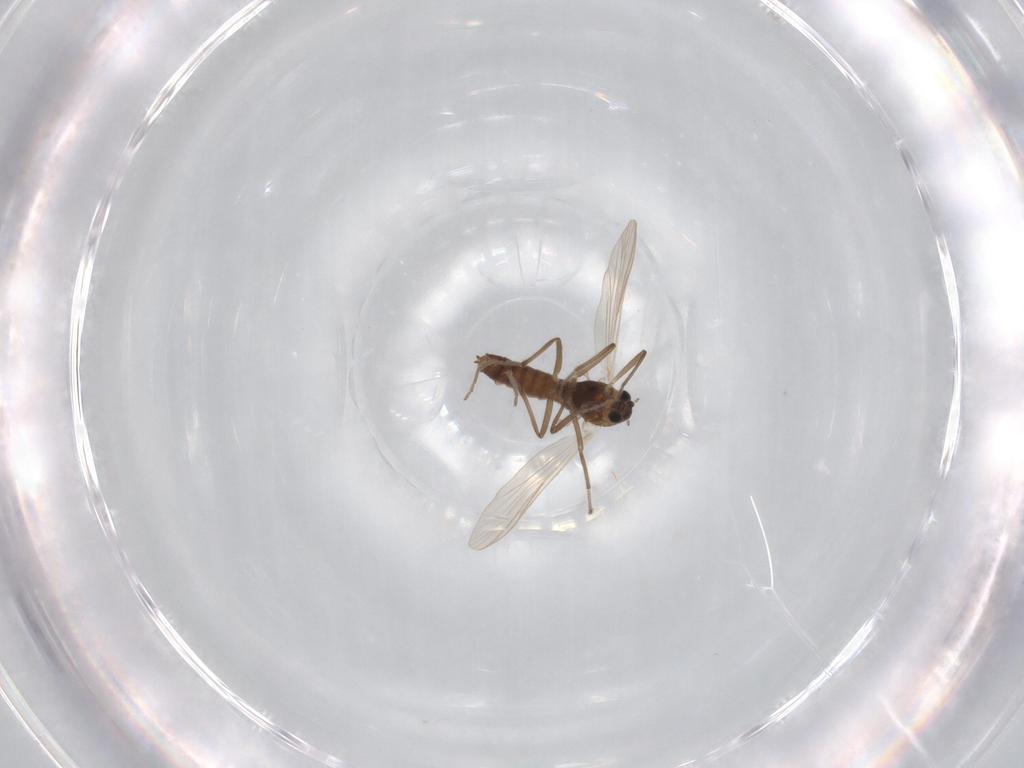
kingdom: Animalia
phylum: Arthropoda
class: Insecta
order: Diptera
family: Chironomidae
